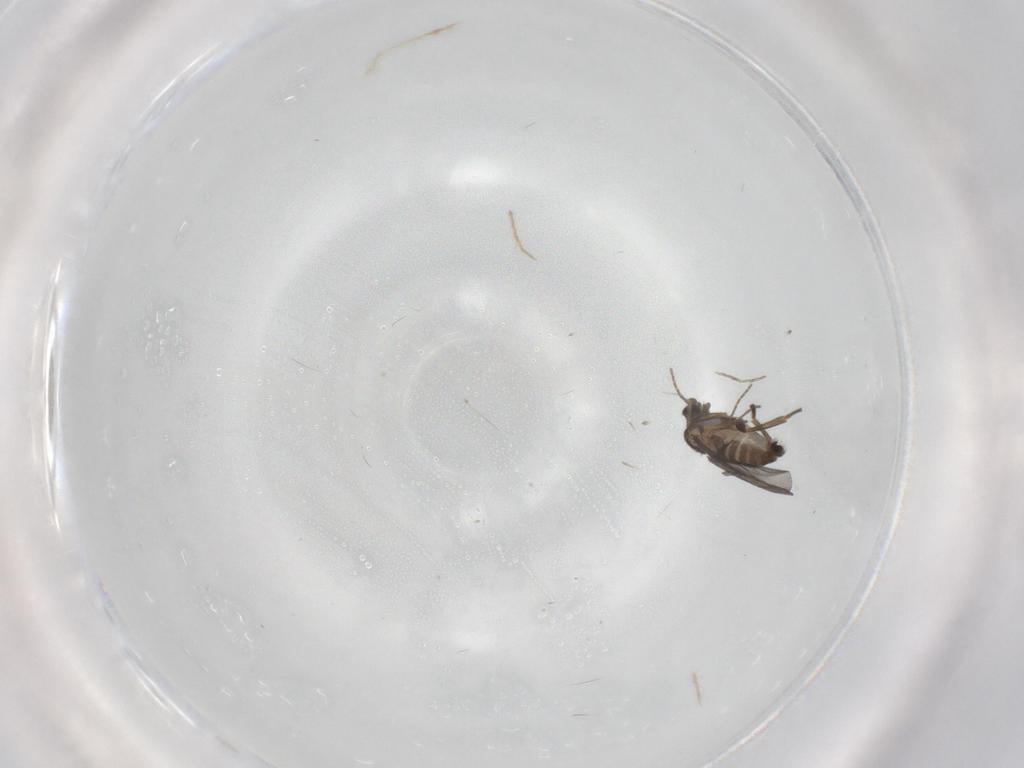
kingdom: Animalia
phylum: Arthropoda
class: Insecta
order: Diptera
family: Phoridae
